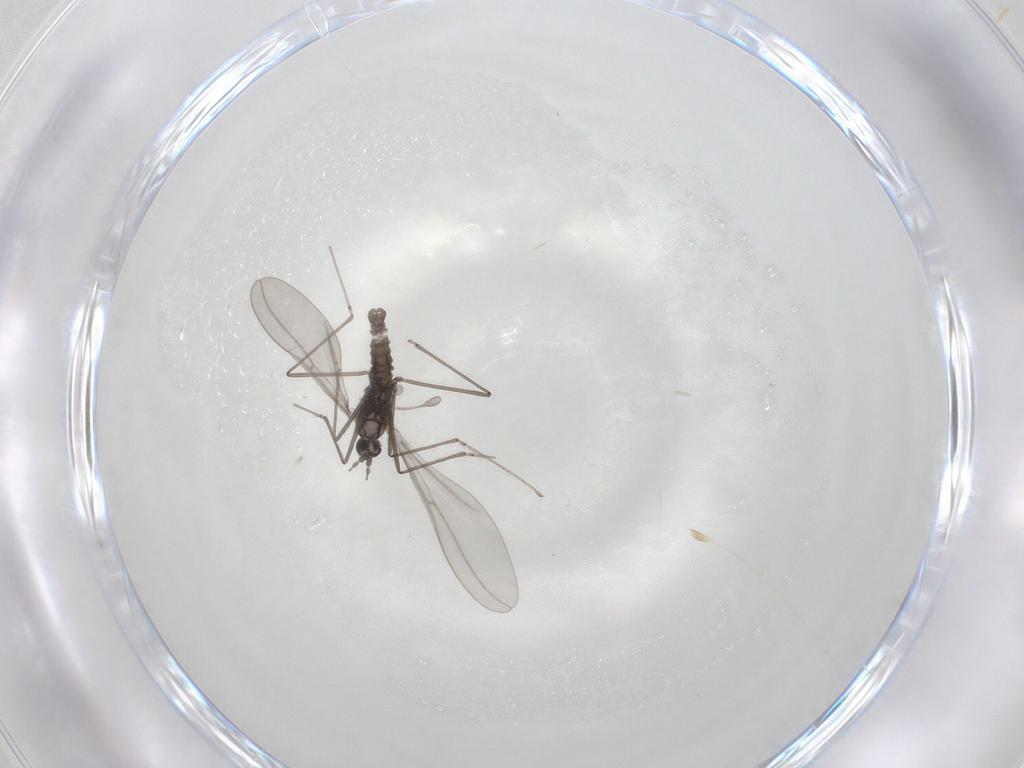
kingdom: Animalia
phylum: Arthropoda
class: Insecta
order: Diptera
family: Cecidomyiidae
